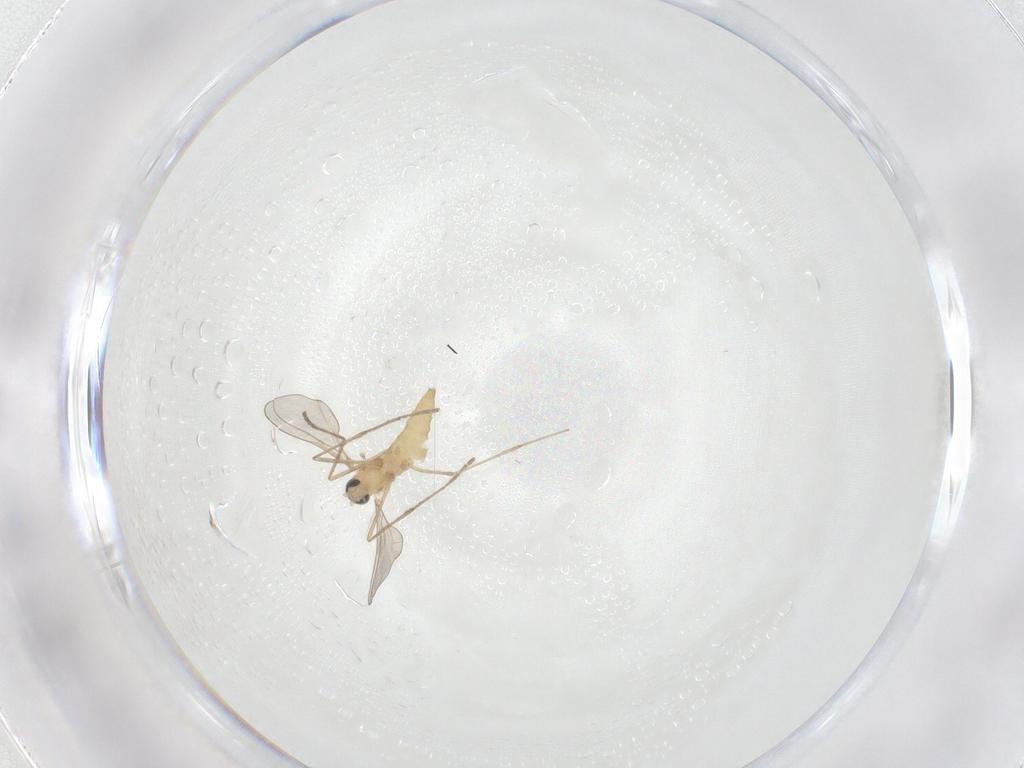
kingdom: Animalia
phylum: Arthropoda
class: Insecta
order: Diptera
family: Cecidomyiidae
